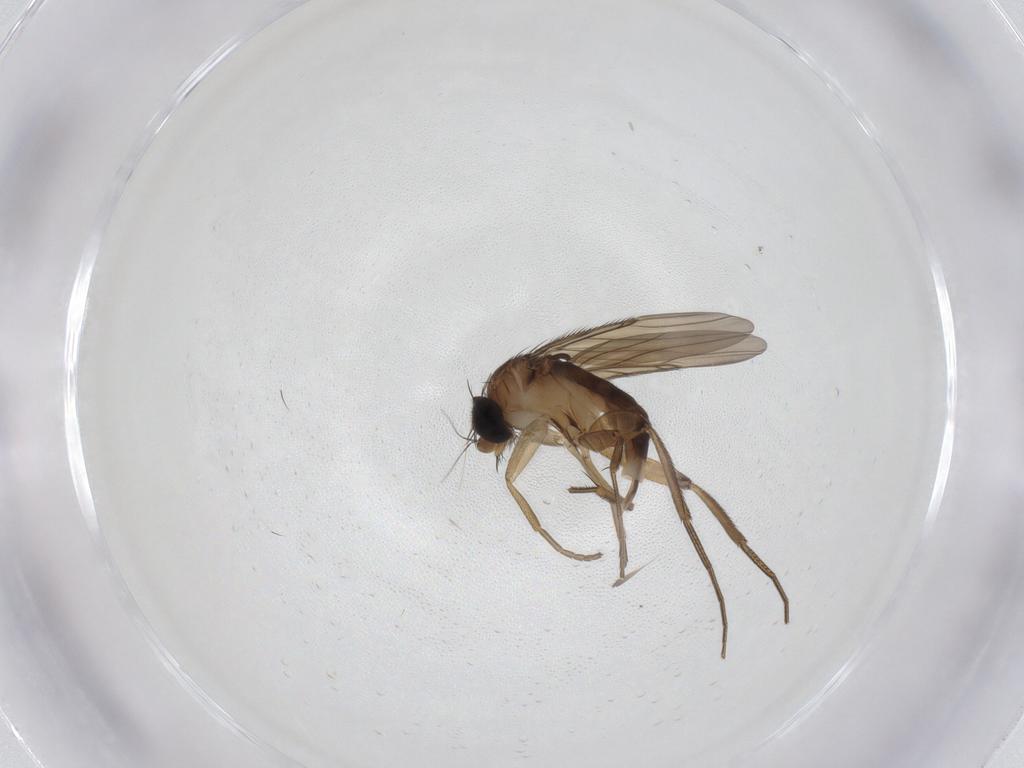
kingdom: Animalia
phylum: Arthropoda
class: Insecta
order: Diptera
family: Phoridae
